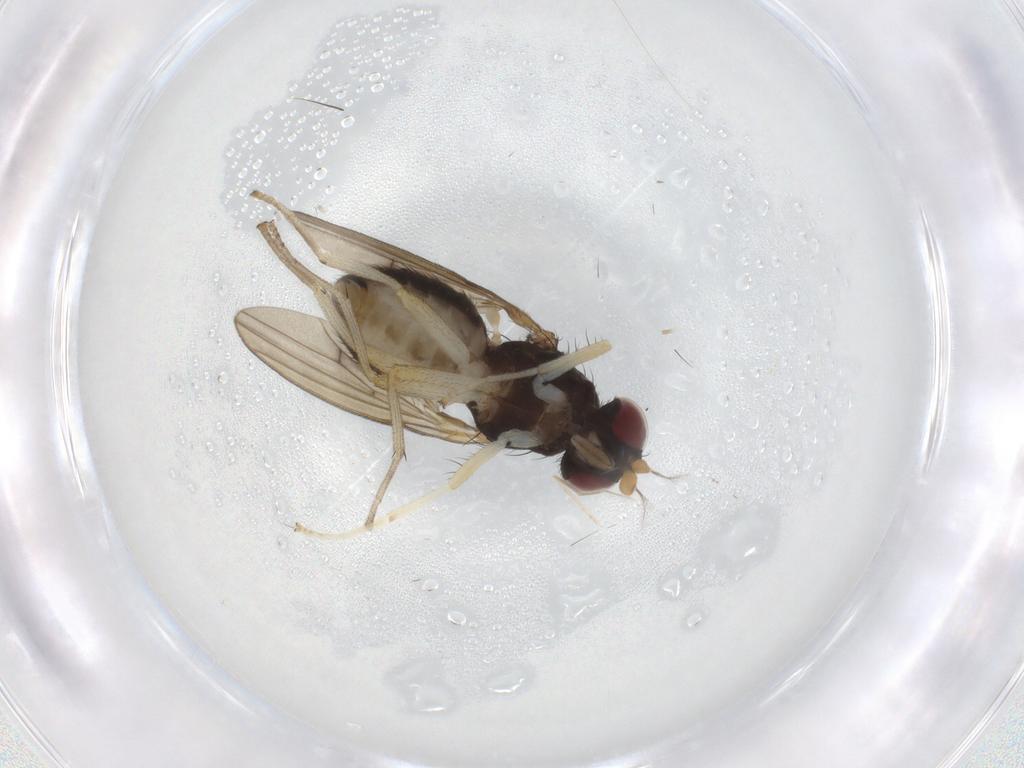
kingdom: Animalia
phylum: Arthropoda
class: Insecta
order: Diptera
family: Syrphidae
